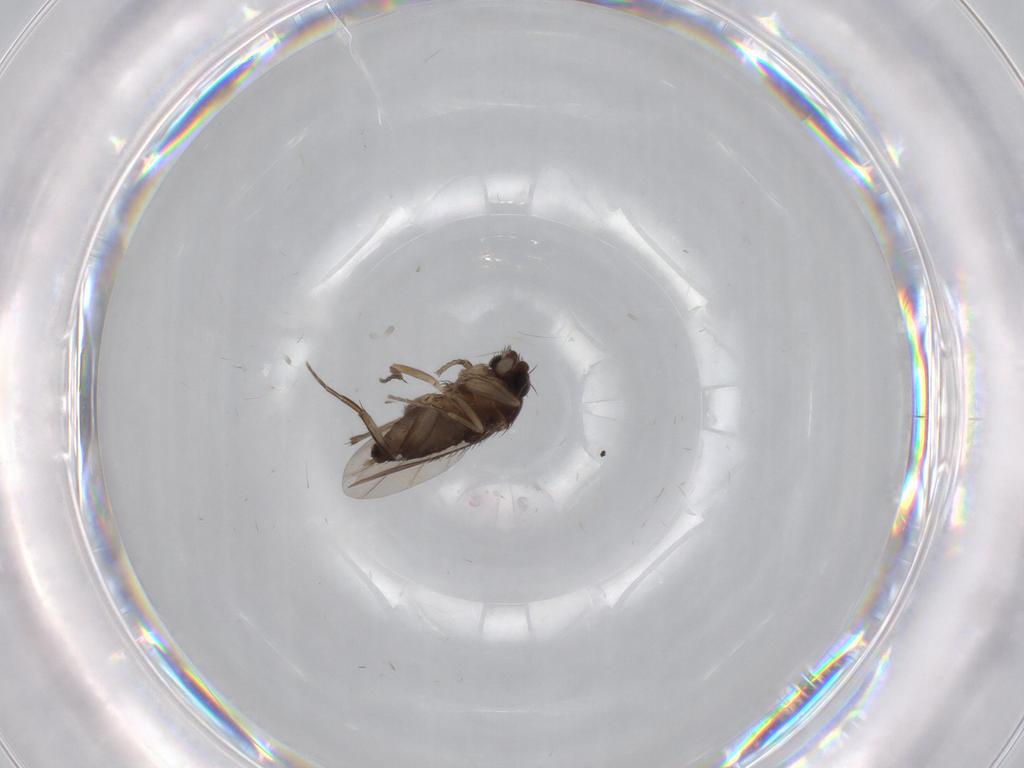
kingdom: Animalia
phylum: Arthropoda
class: Insecta
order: Diptera
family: Phoridae
